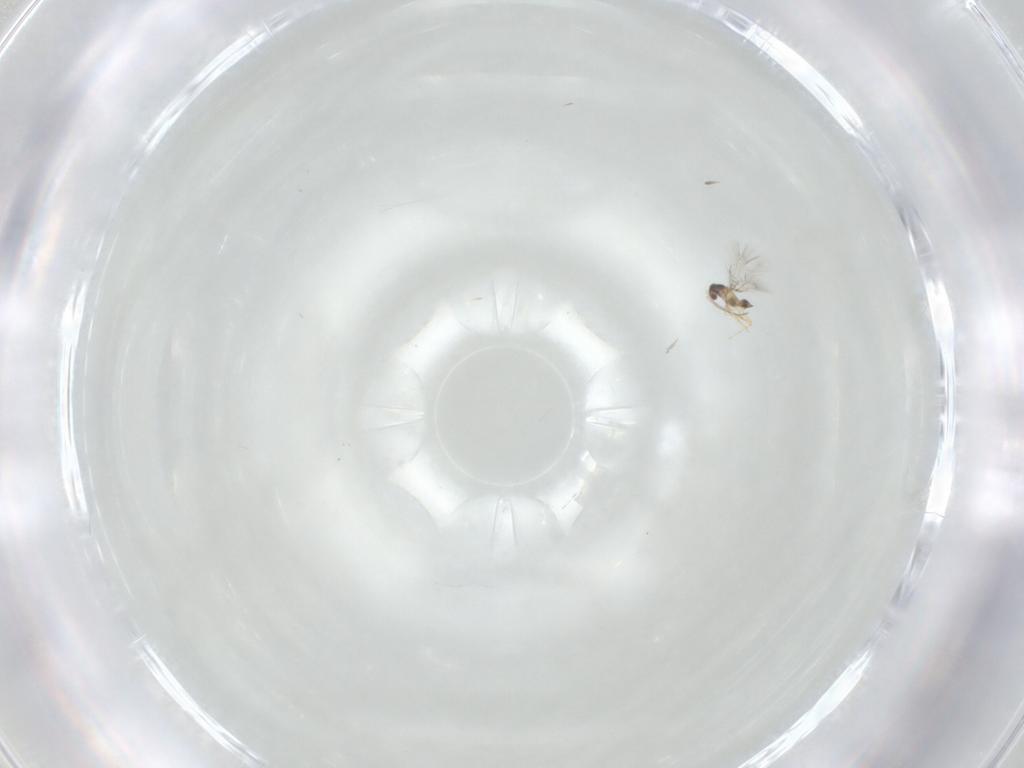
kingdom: Animalia
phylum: Arthropoda
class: Insecta
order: Hymenoptera
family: Mymaridae
